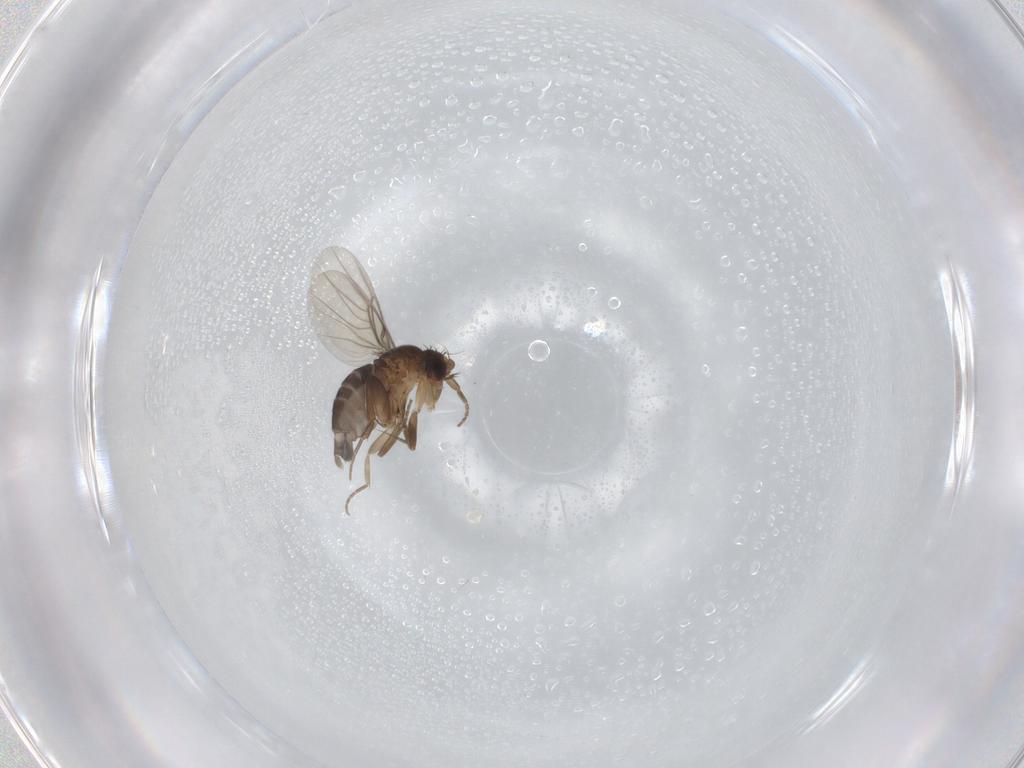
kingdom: Animalia
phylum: Arthropoda
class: Insecta
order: Diptera
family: Phoridae
